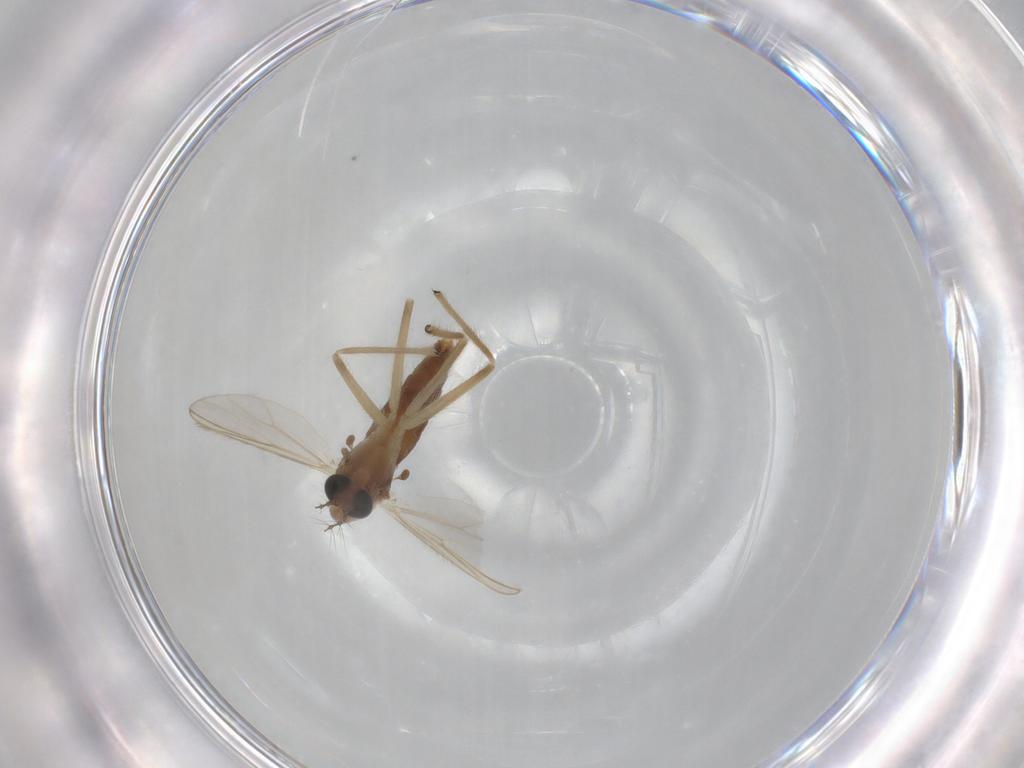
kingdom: Animalia
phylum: Arthropoda
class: Insecta
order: Diptera
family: Chironomidae
